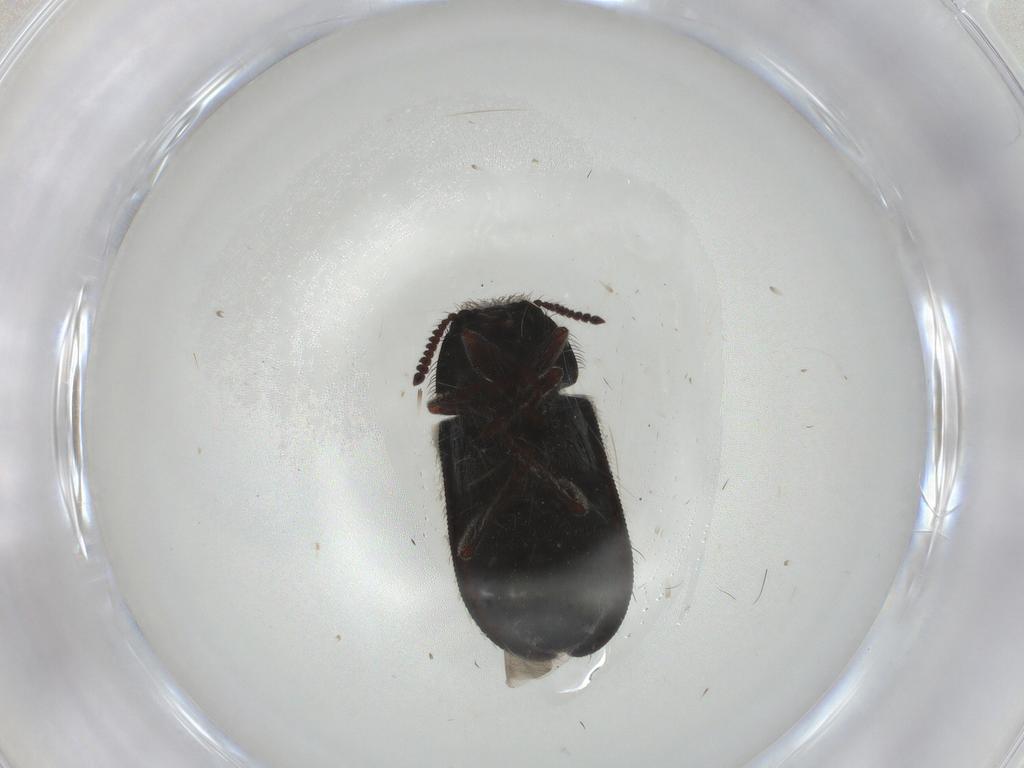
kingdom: Animalia
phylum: Arthropoda
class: Insecta
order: Coleoptera
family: Melyridae
